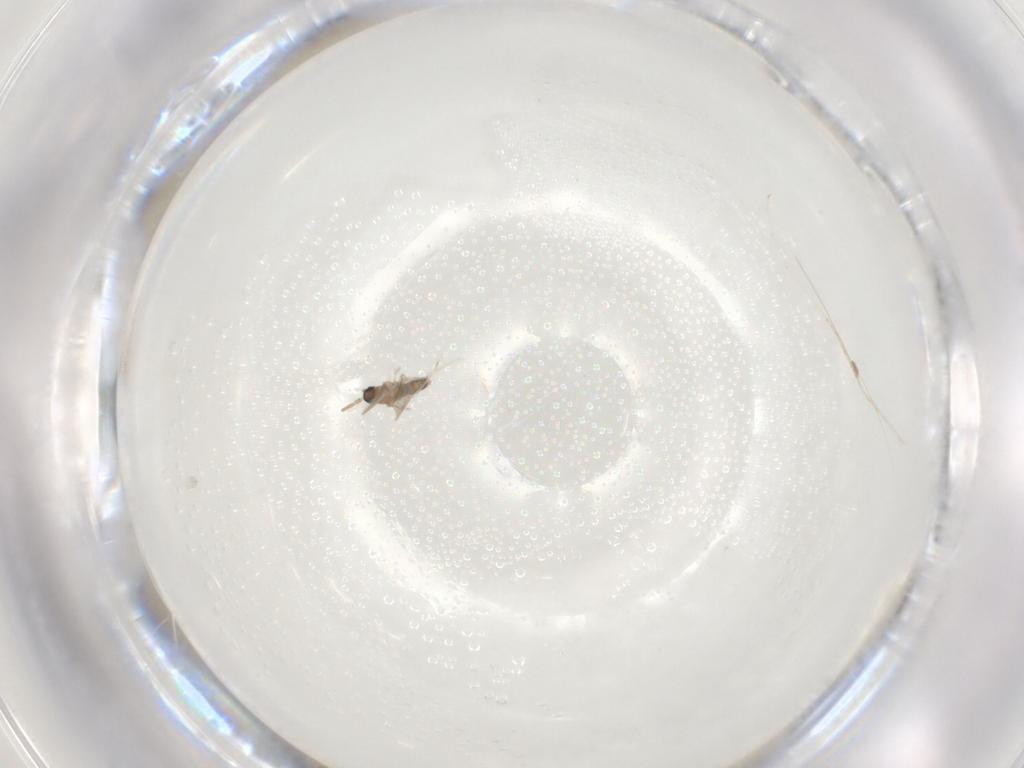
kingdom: Animalia
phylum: Arthropoda
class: Insecta
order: Diptera
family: Cecidomyiidae
